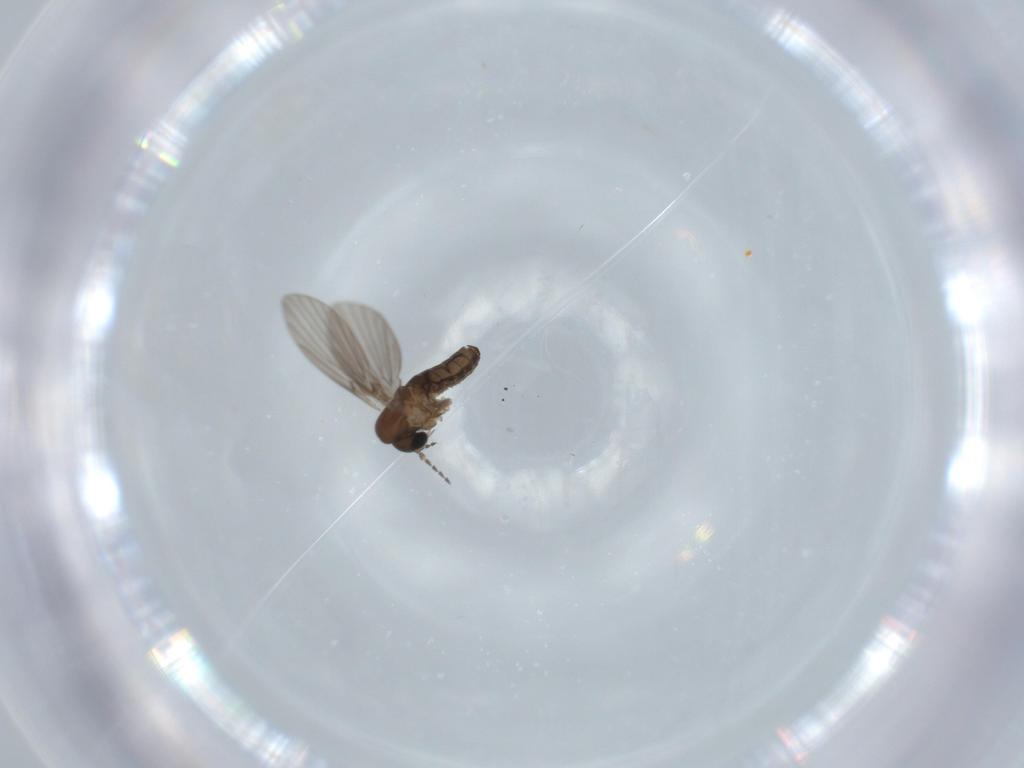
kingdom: Animalia
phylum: Arthropoda
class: Insecta
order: Diptera
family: Psychodidae
